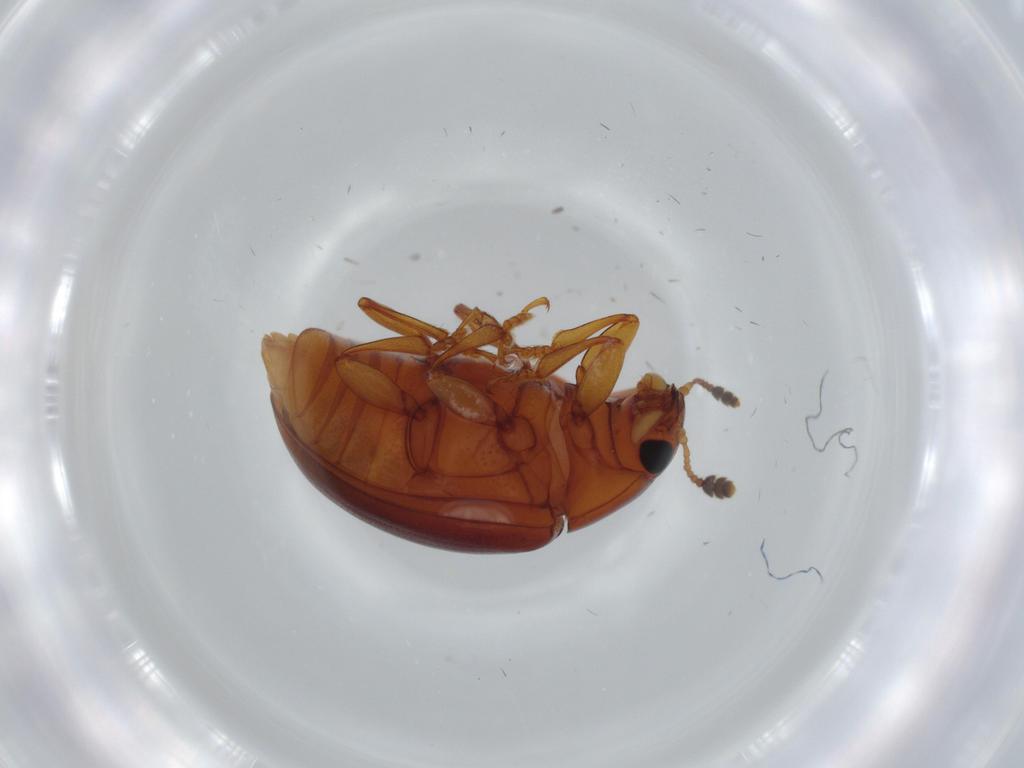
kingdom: Animalia
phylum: Arthropoda
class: Insecta
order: Coleoptera
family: Erotylidae
